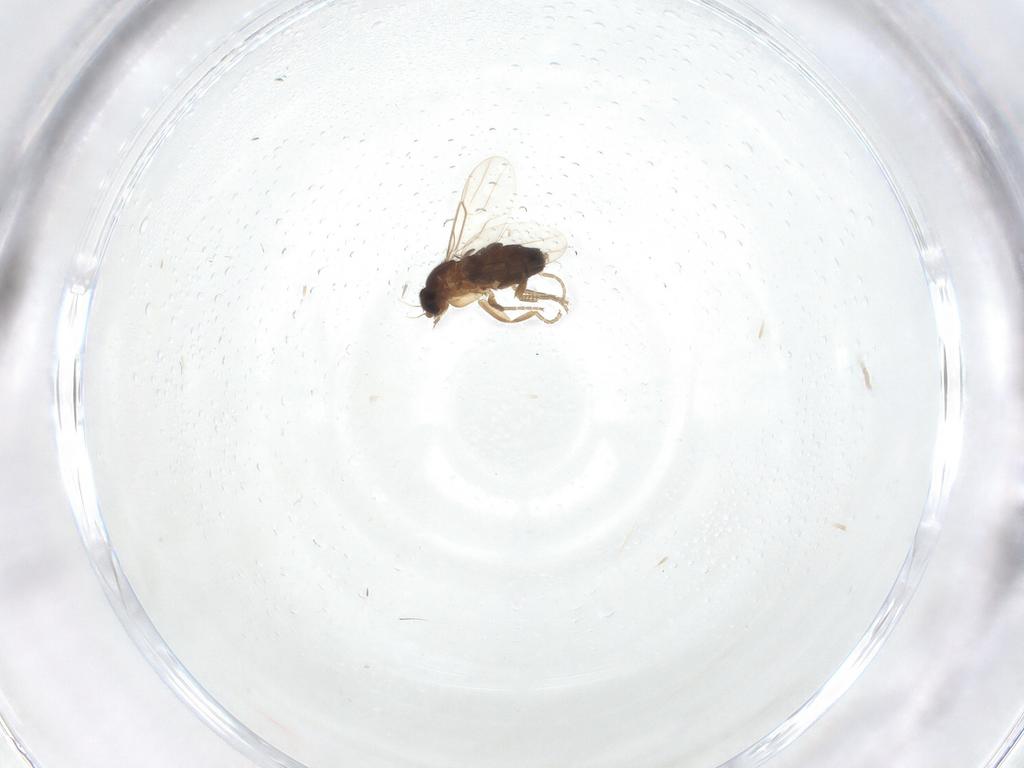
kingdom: Animalia
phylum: Arthropoda
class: Insecta
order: Diptera
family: Phoridae
